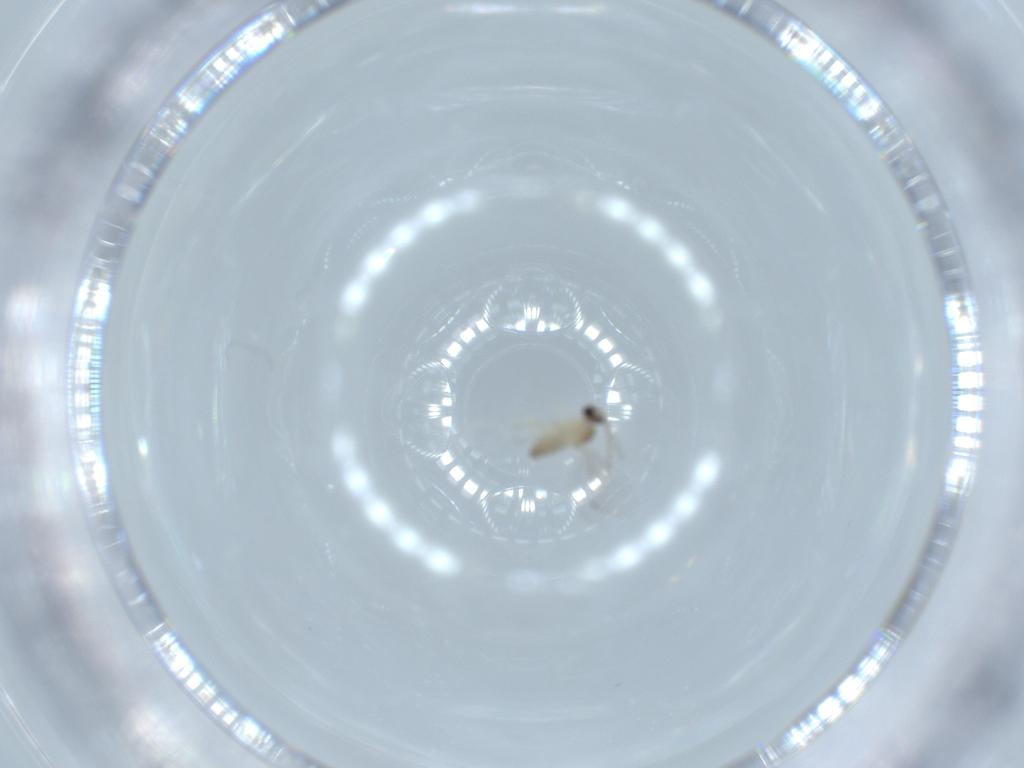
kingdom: Animalia
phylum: Arthropoda
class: Insecta
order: Diptera
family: Cecidomyiidae
